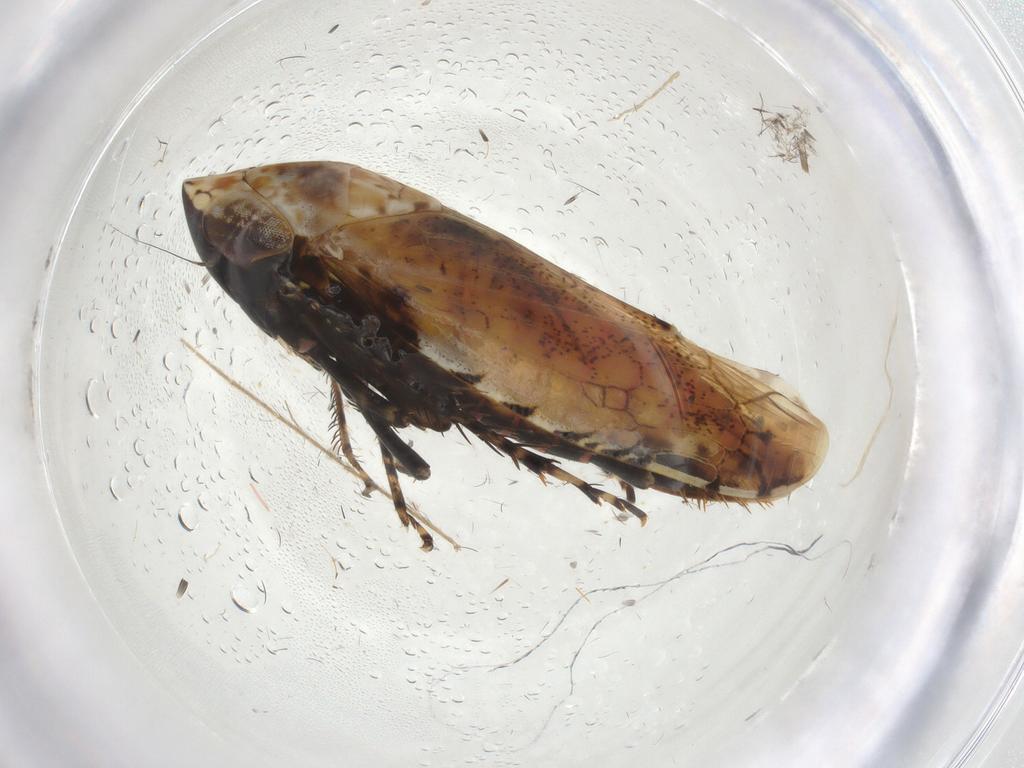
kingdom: Animalia
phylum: Arthropoda
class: Insecta
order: Hemiptera
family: Cicadellidae
